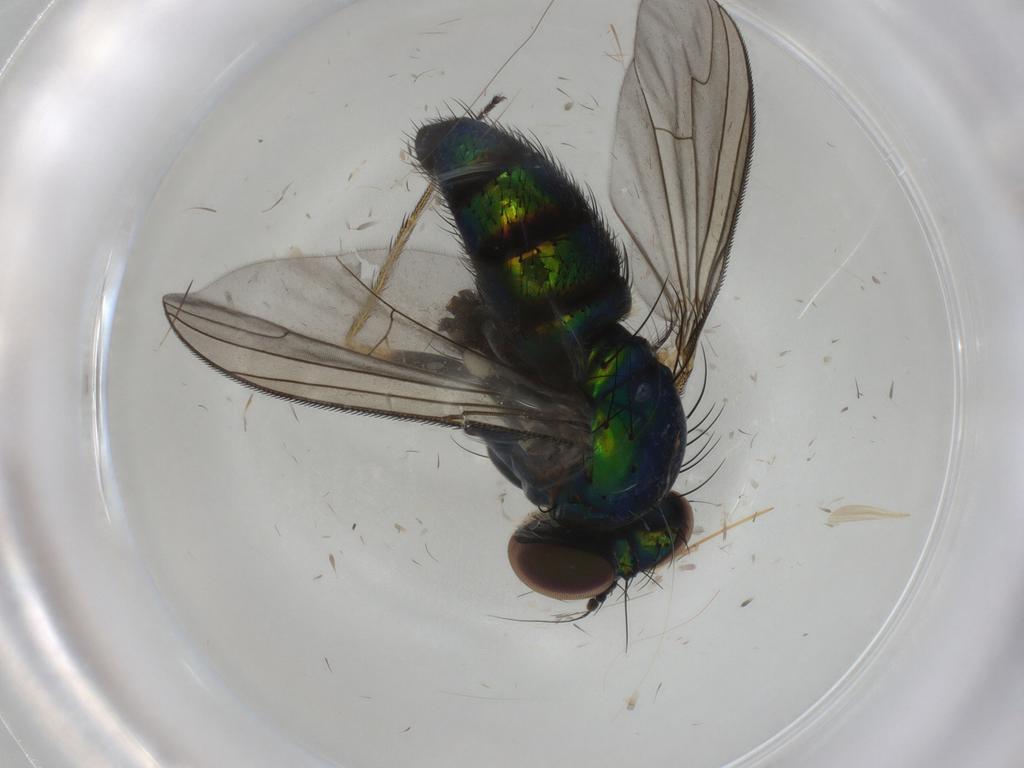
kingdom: Animalia
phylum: Arthropoda
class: Insecta
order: Diptera
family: Dolichopodidae
